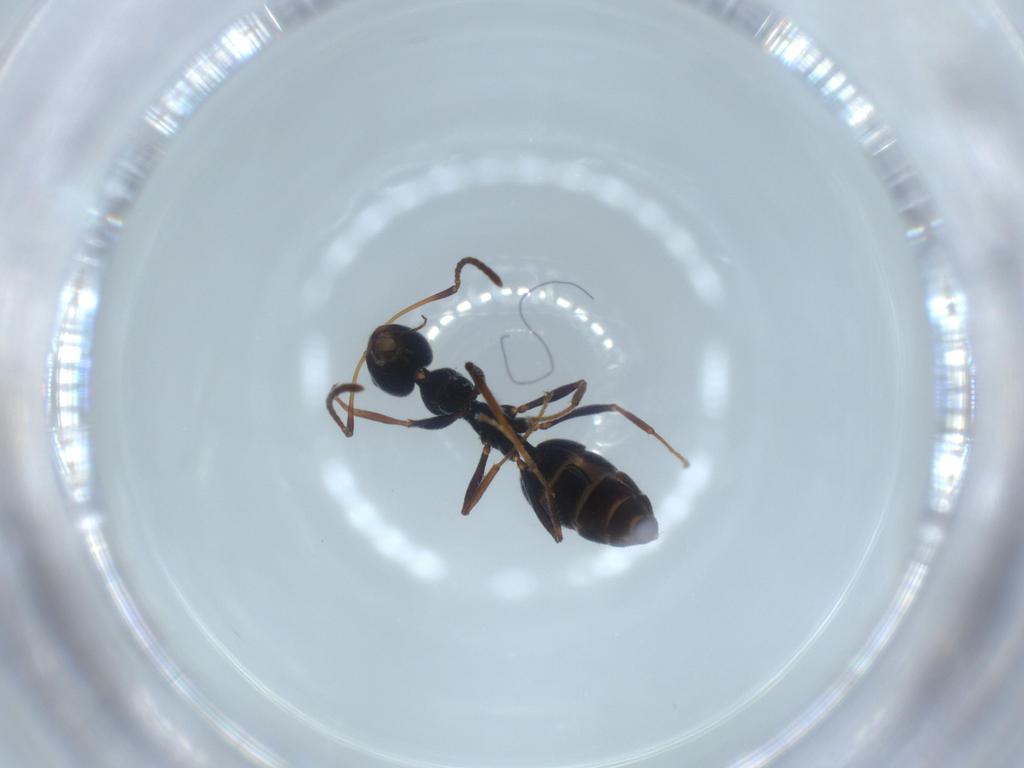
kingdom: Animalia
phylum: Arthropoda
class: Insecta
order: Hymenoptera
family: Formicidae
